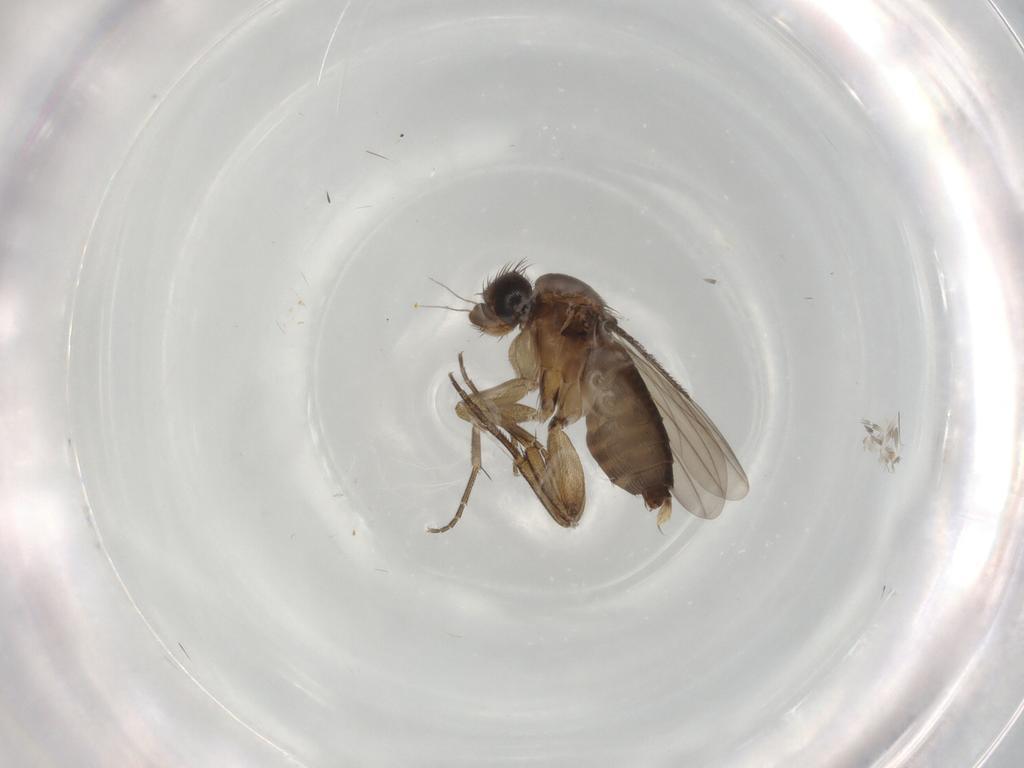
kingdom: Animalia
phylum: Arthropoda
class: Insecta
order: Diptera
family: Phoridae
